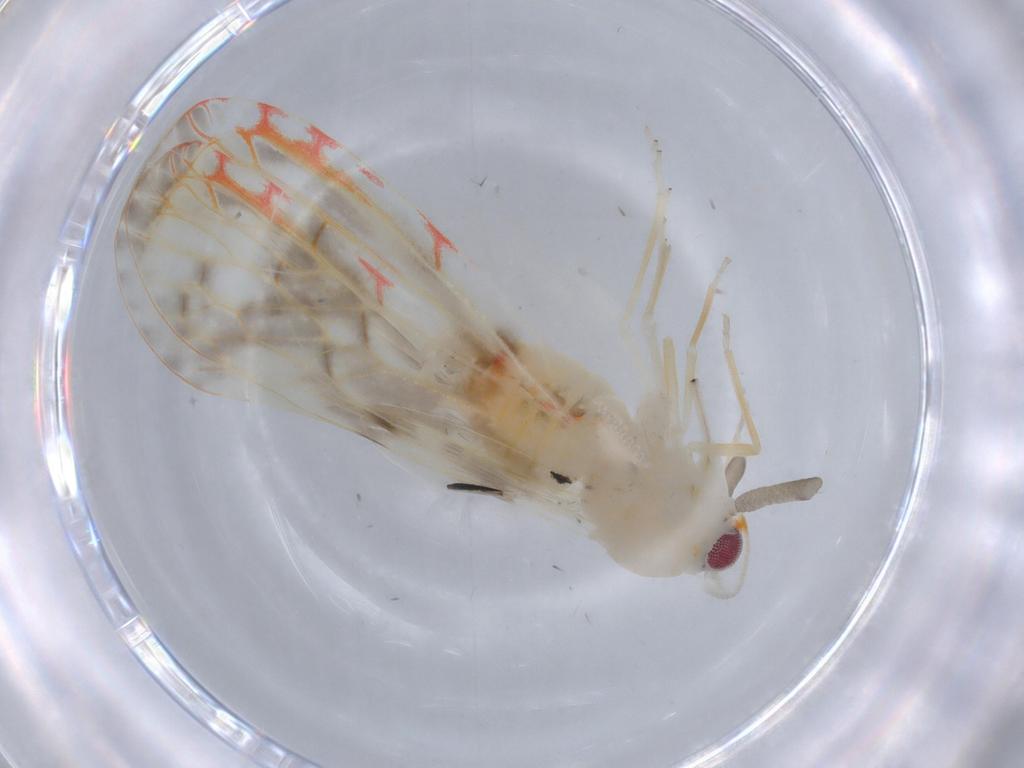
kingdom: Animalia
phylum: Arthropoda
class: Insecta
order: Hemiptera
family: Derbidae
